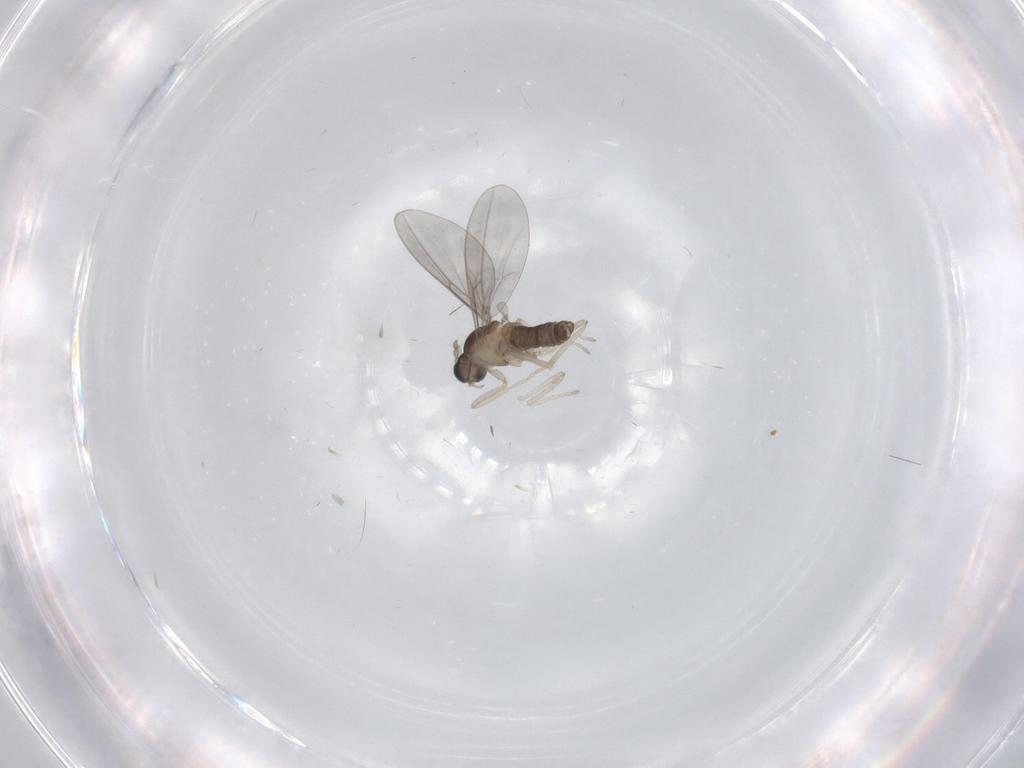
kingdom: Animalia
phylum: Arthropoda
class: Insecta
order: Diptera
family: Cecidomyiidae
